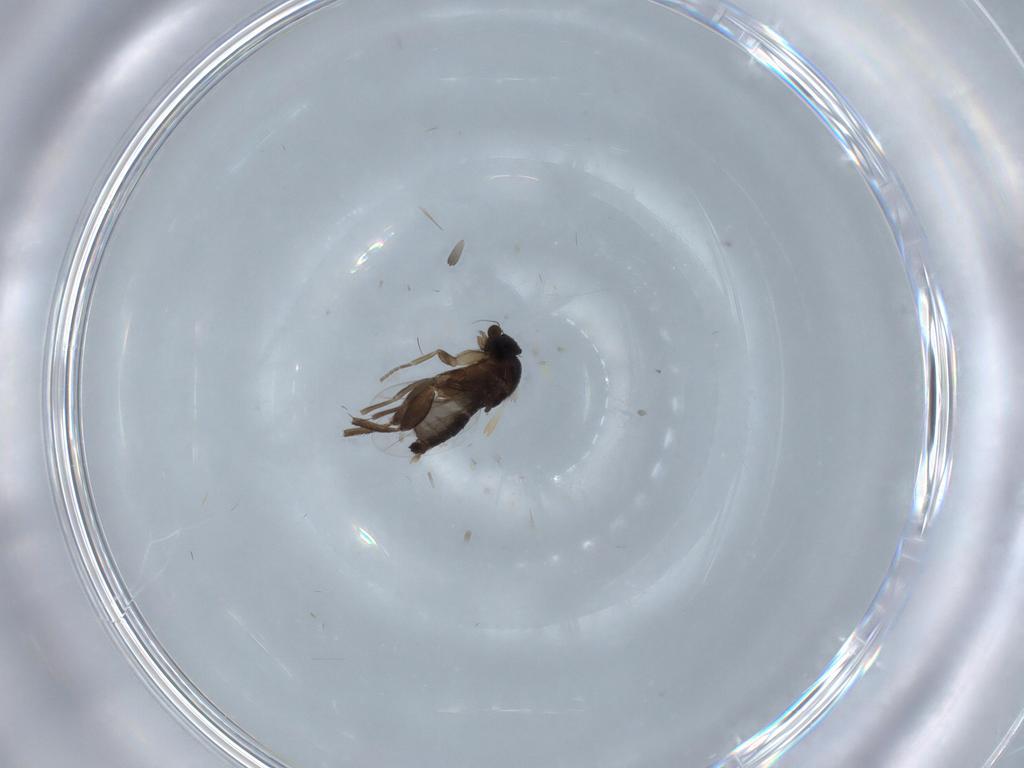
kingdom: Animalia
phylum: Arthropoda
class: Insecta
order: Diptera
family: Phoridae
